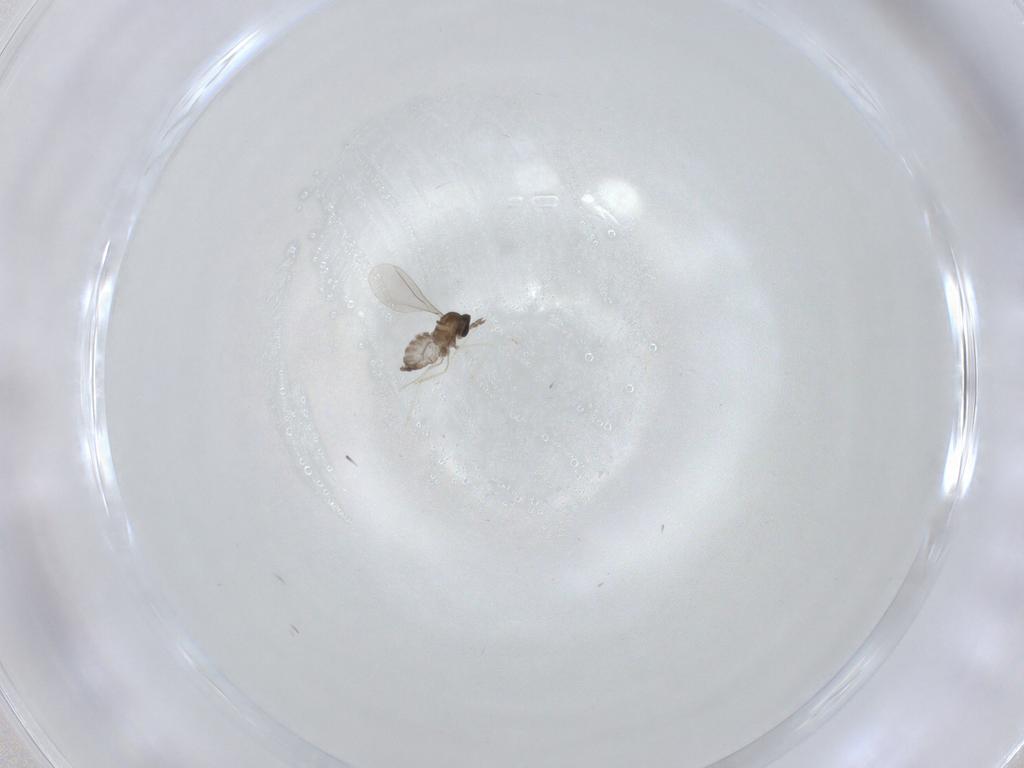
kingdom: Animalia
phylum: Arthropoda
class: Insecta
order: Diptera
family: Cecidomyiidae
